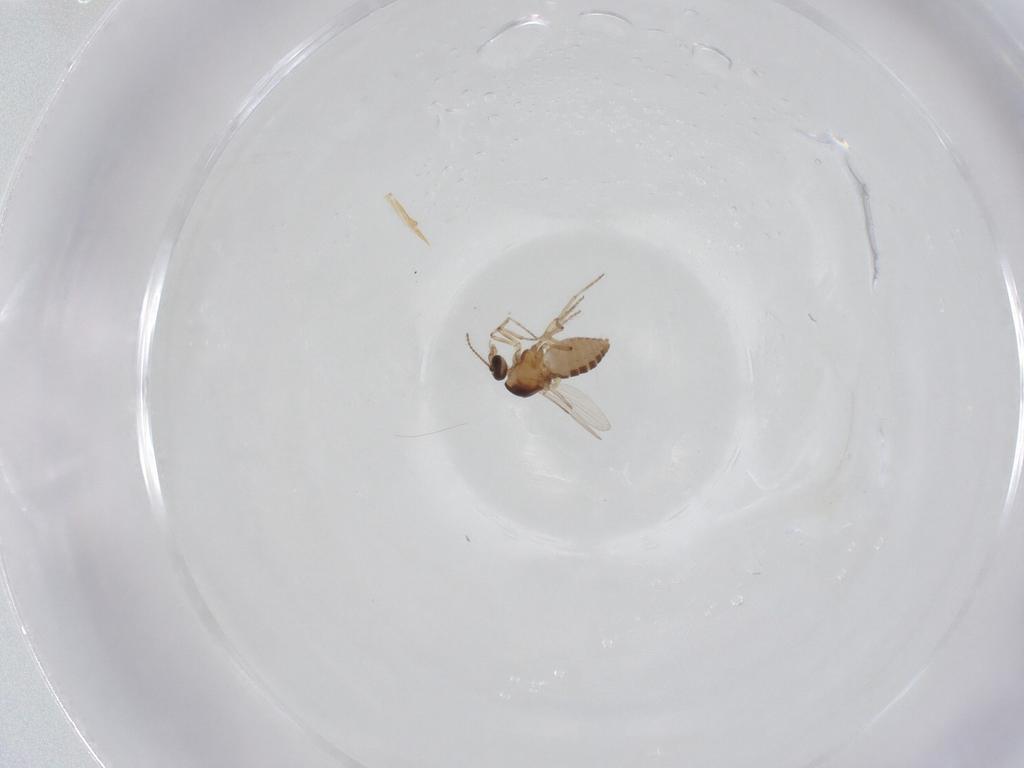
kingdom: Animalia
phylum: Arthropoda
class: Insecta
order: Diptera
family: Ceratopogonidae
